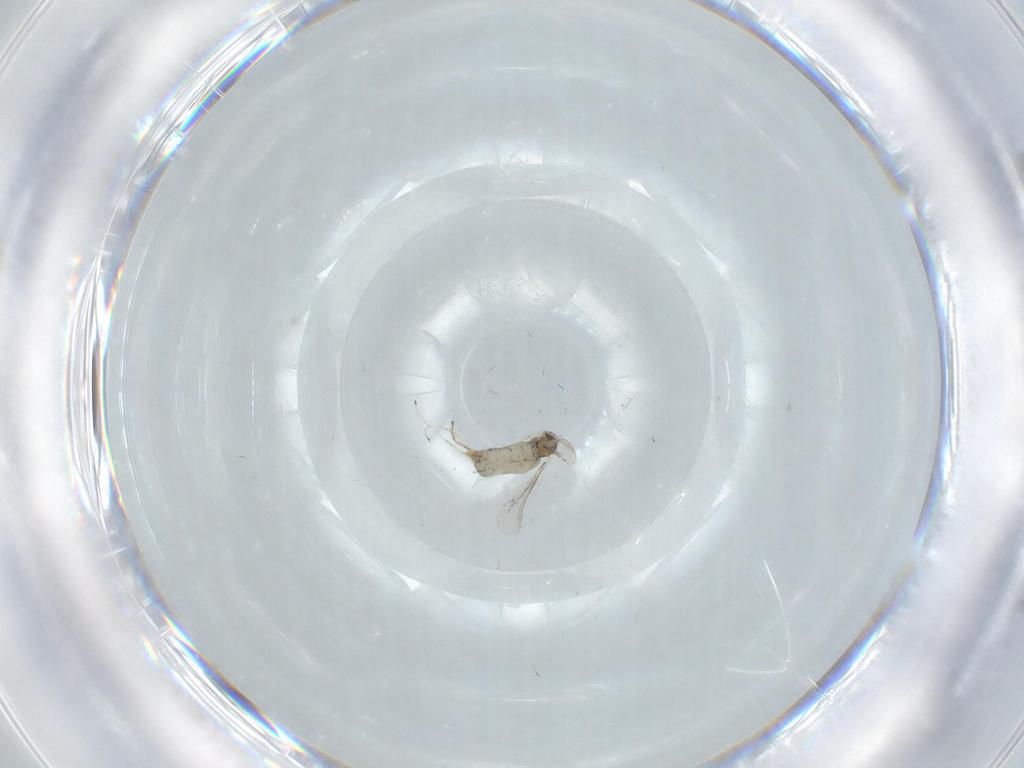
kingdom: Animalia
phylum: Arthropoda
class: Insecta
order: Diptera
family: Cecidomyiidae
